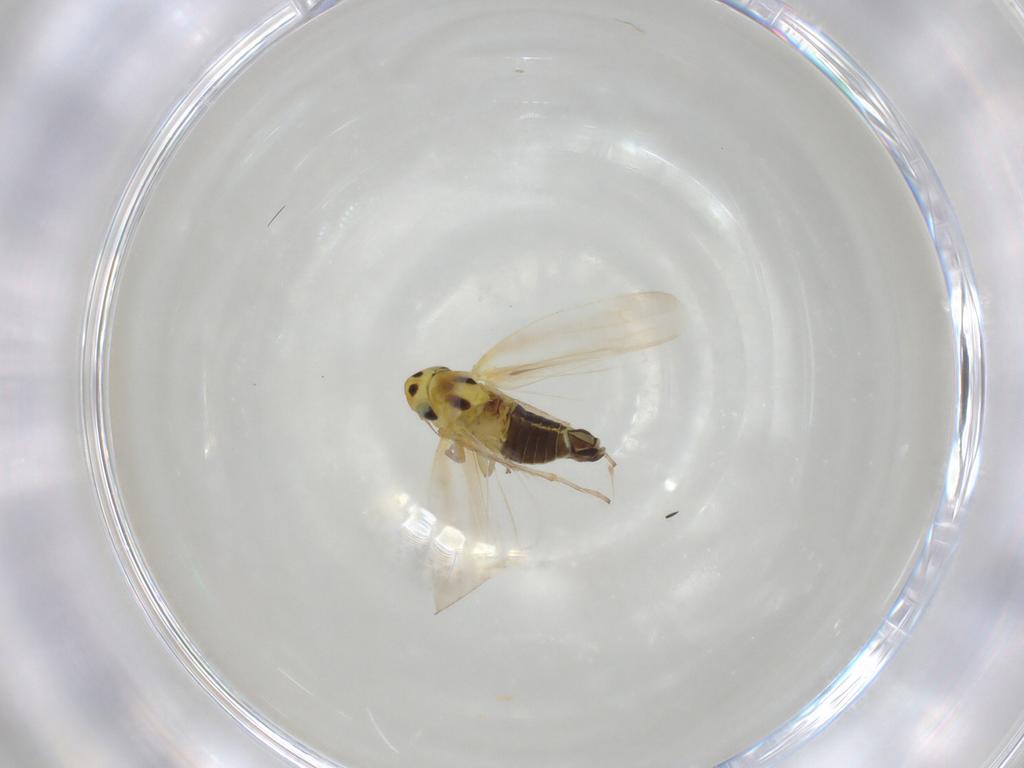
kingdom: Animalia
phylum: Arthropoda
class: Insecta
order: Hemiptera
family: Cicadellidae
